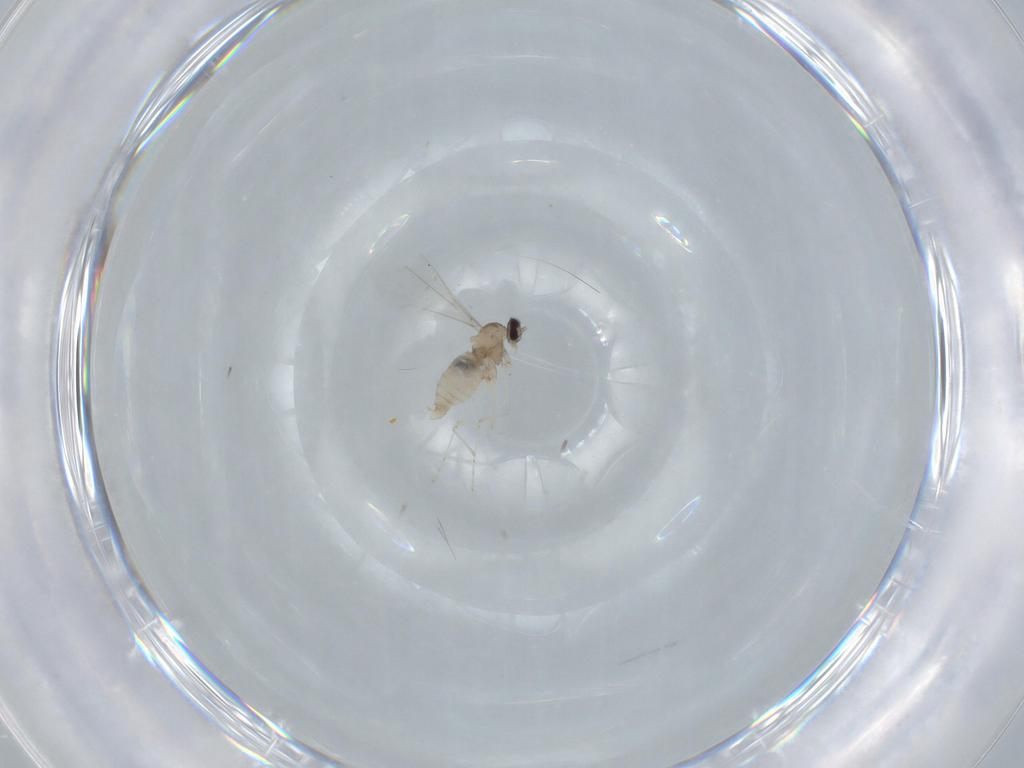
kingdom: Animalia
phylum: Arthropoda
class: Insecta
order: Diptera
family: Cecidomyiidae
